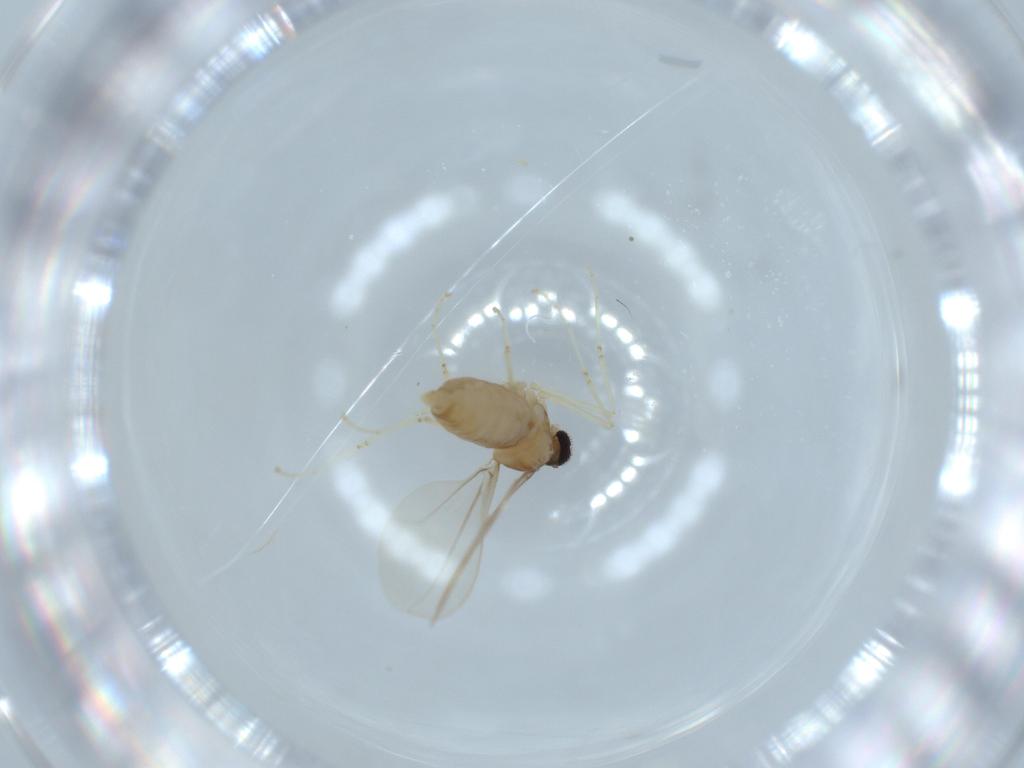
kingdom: Animalia
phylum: Arthropoda
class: Insecta
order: Diptera
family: Cecidomyiidae
